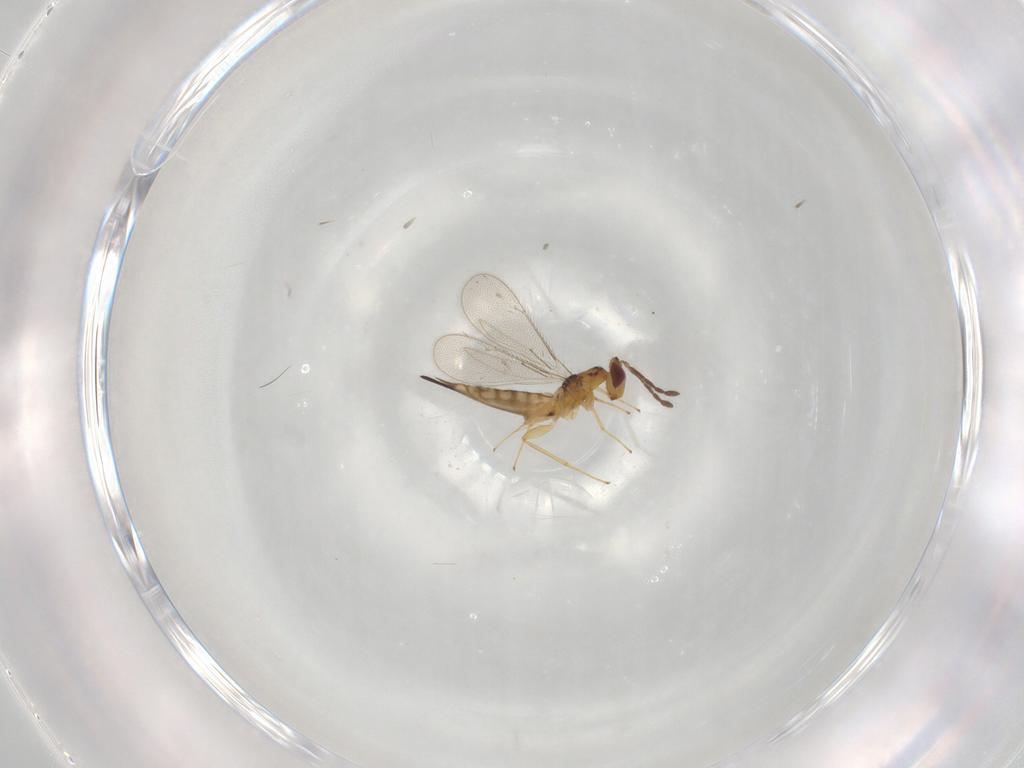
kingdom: Animalia
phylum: Arthropoda
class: Insecta
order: Hymenoptera
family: Eulophidae
